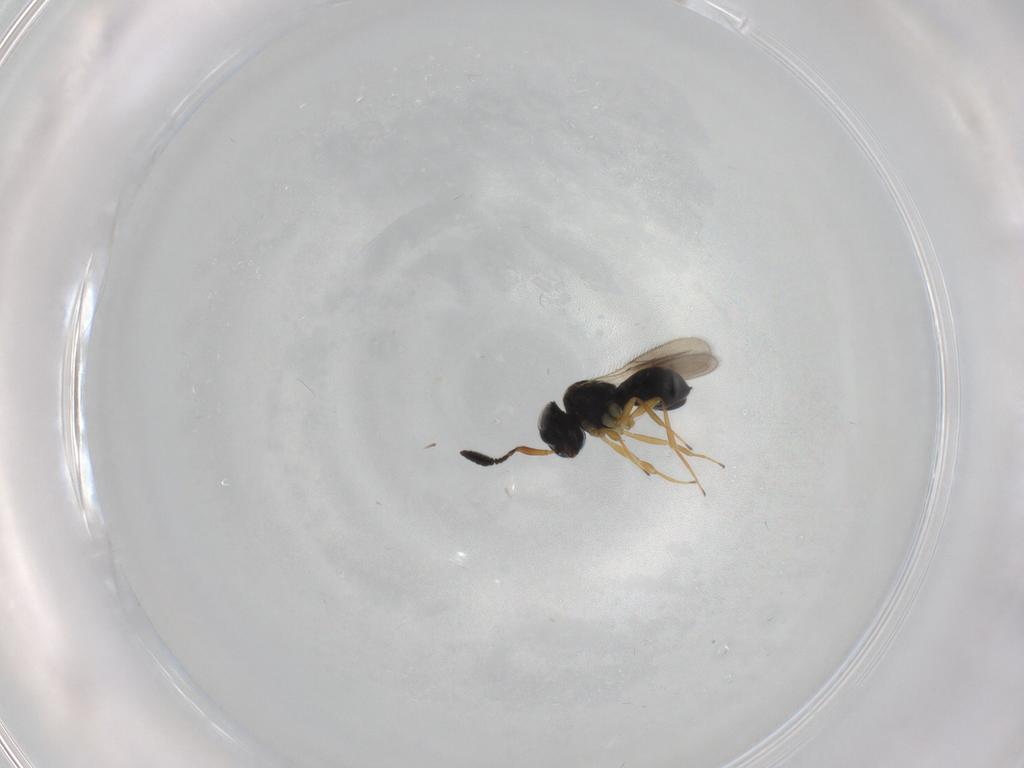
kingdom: Animalia
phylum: Arthropoda
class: Insecta
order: Hymenoptera
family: Scelionidae
